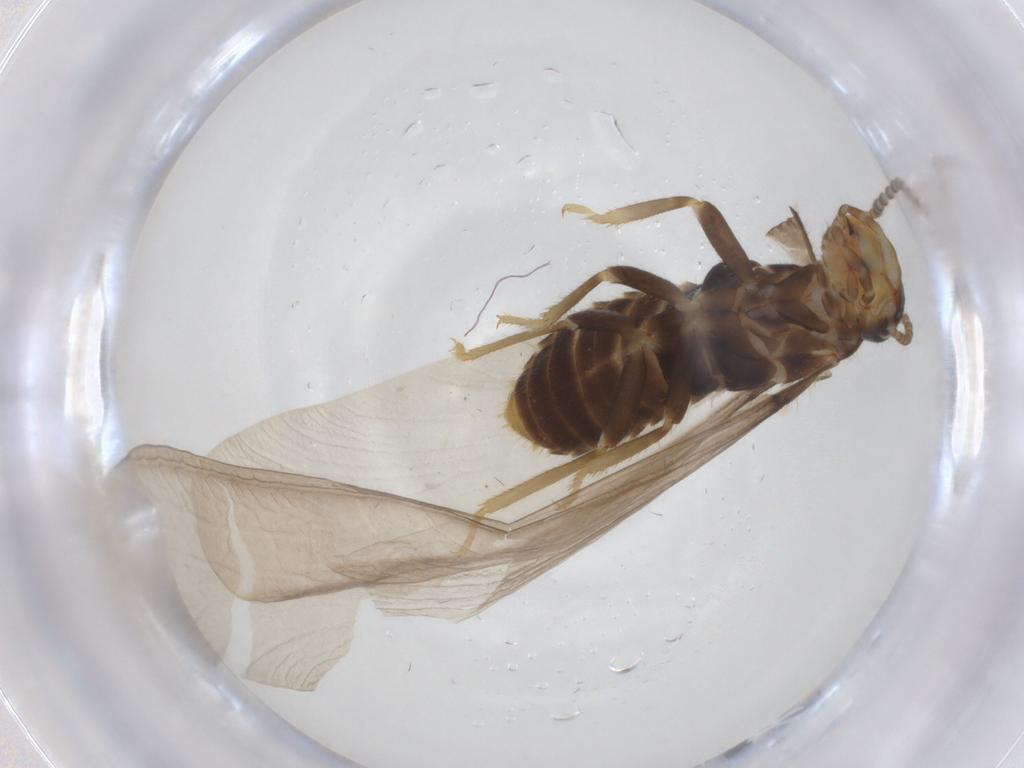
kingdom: Animalia
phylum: Arthropoda
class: Insecta
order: Blattodea
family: Rhinotermitidae
